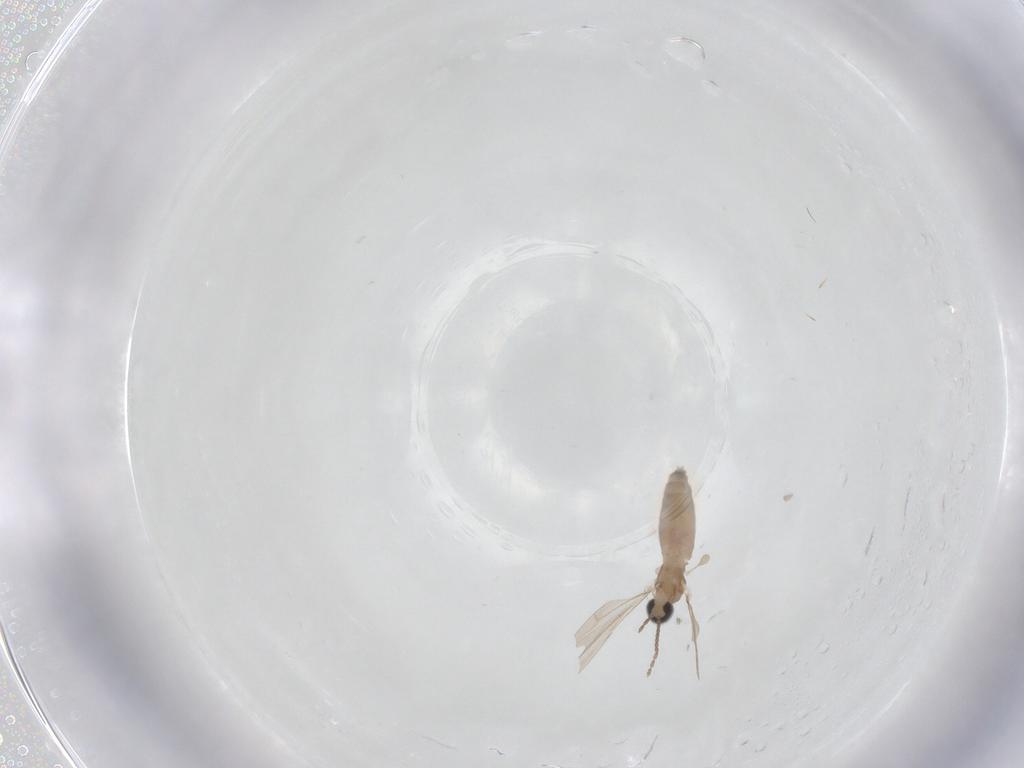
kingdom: Animalia
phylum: Arthropoda
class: Insecta
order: Diptera
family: Cecidomyiidae
